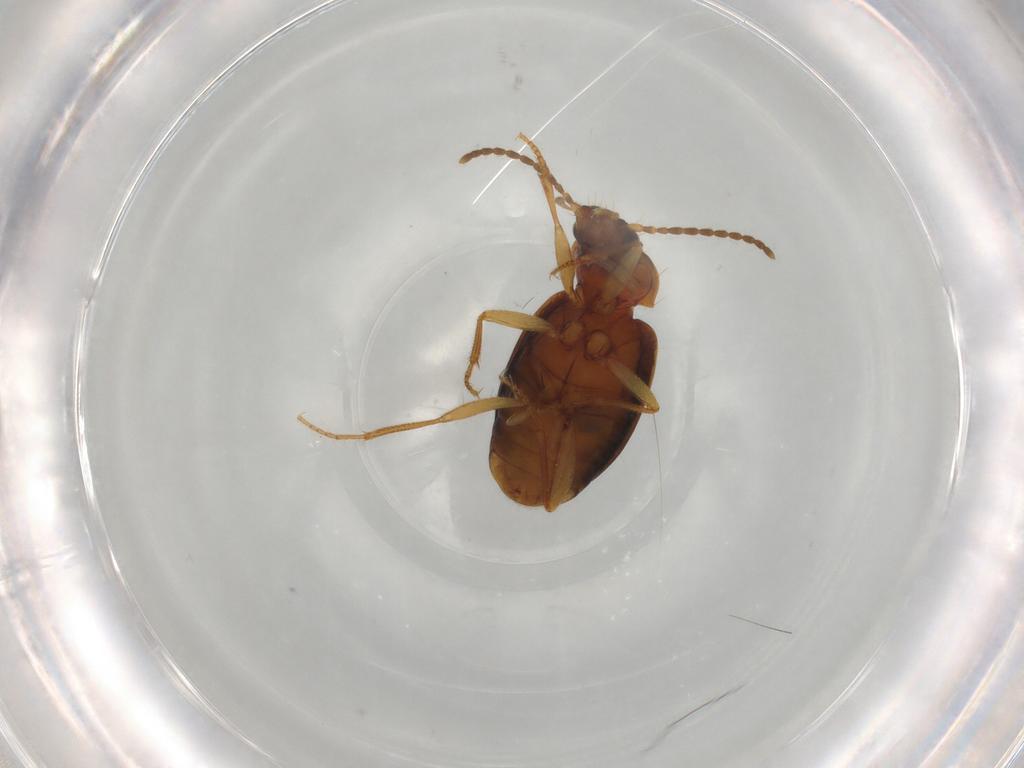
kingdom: Animalia
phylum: Arthropoda
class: Insecta
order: Coleoptera
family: Carabidae
